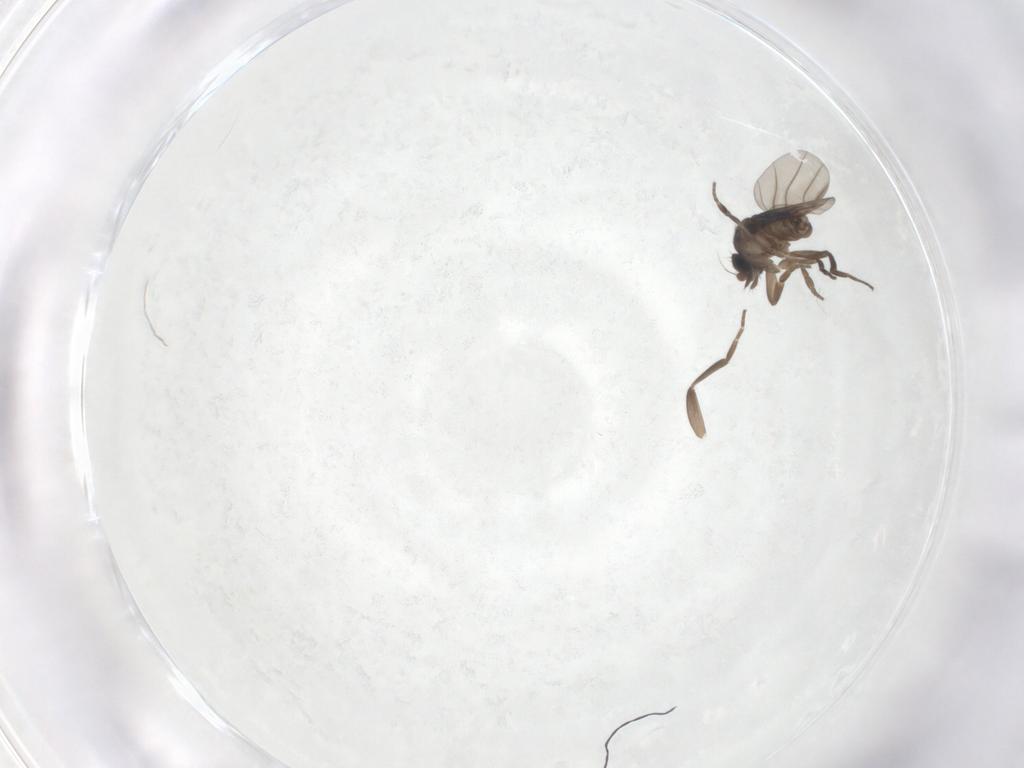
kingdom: Animalia
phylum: Arthropoda
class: Insecta
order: Diptera
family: Phoridae
